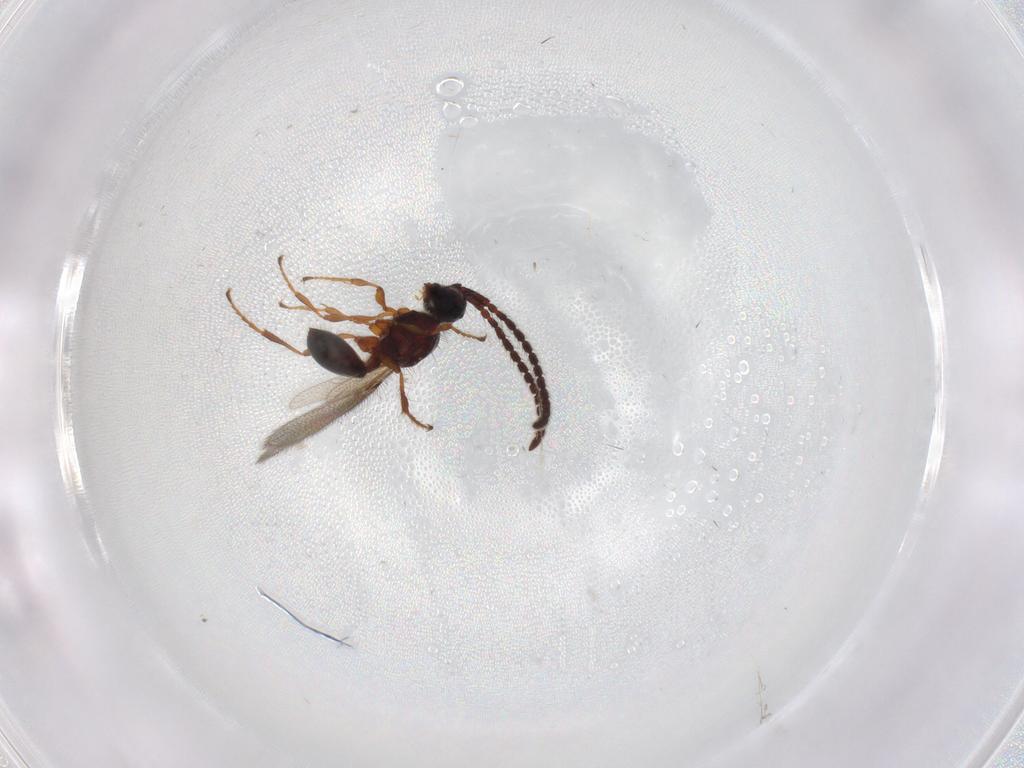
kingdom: Animalia
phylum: Arthropoda
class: Insecta
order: Hymenoptera
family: Diapriidae
